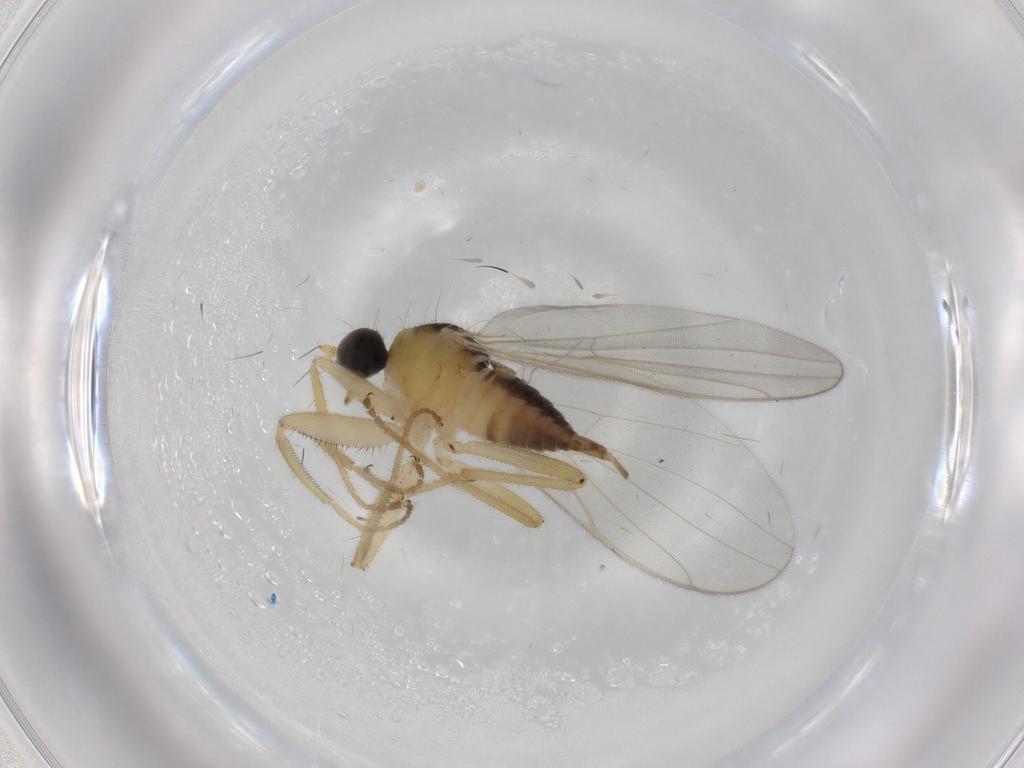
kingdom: Animalia
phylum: Arthropoda
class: Insecta
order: Diptera
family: Hybotidae
